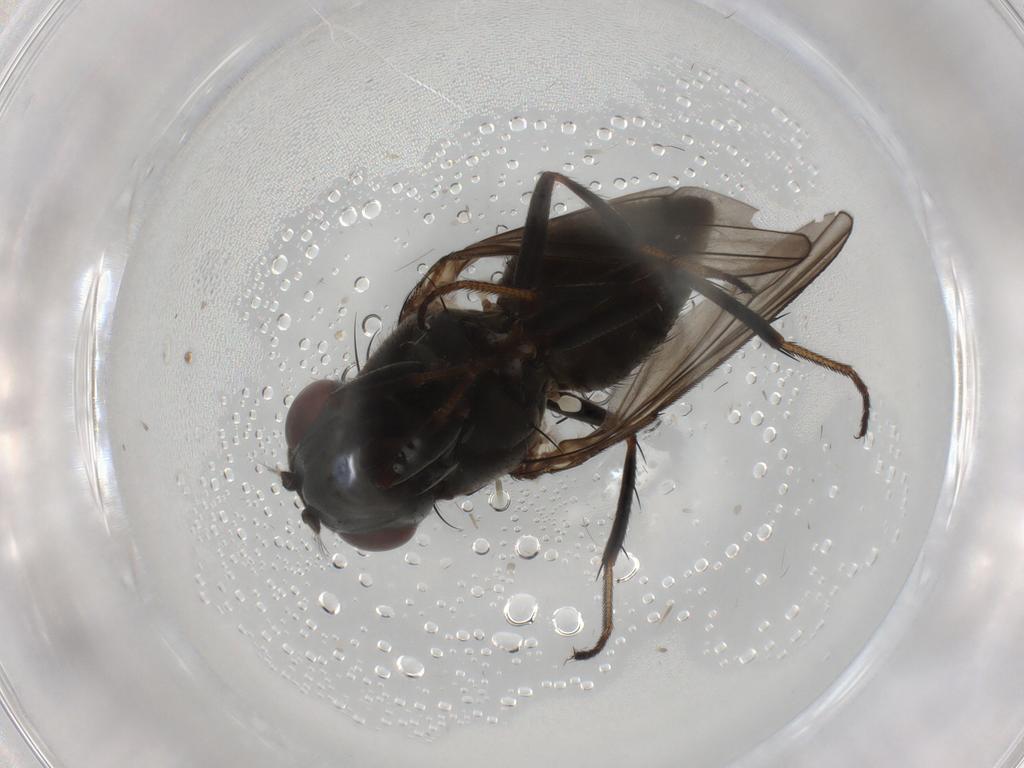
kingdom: Animalia
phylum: Arthropoda
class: Insecta
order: Diptera
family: Ephydridae
